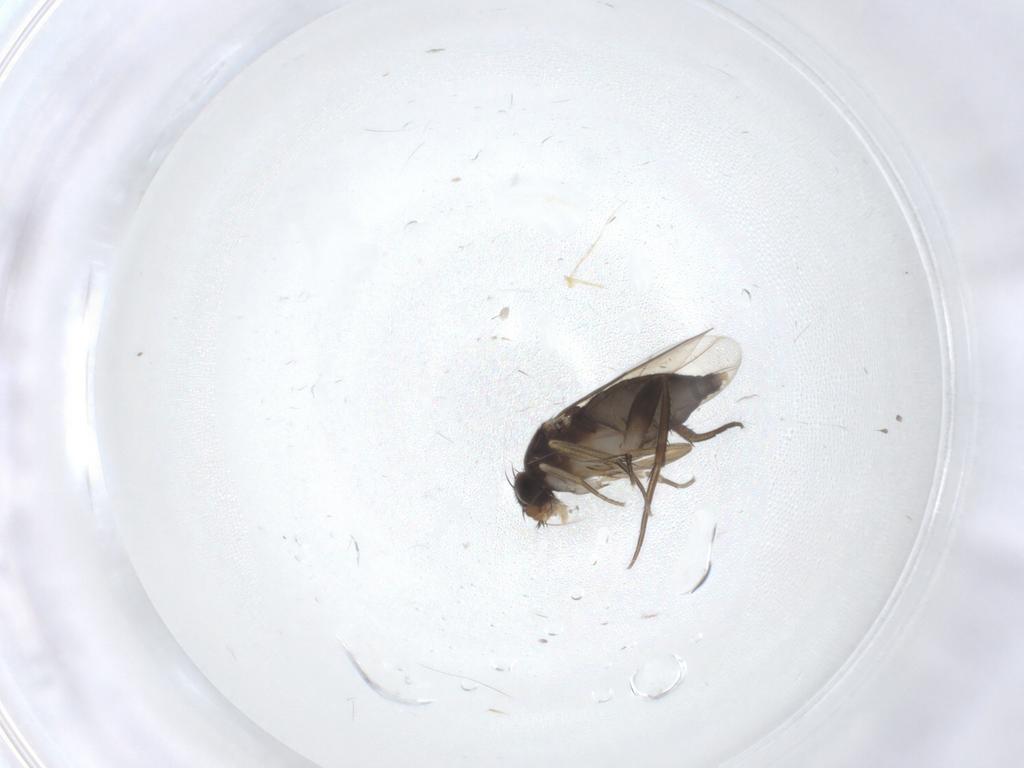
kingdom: Animalia
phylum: Arthropoda
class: Insecta
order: Diptera
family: Phoridae
